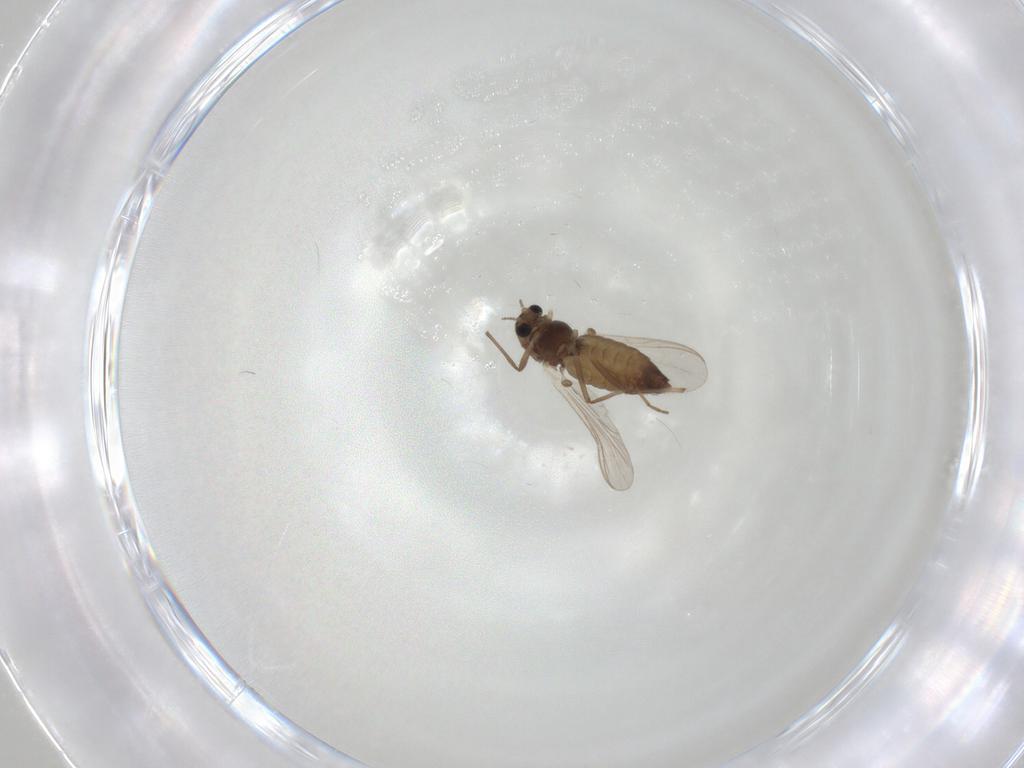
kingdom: Animalia
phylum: Arthropoda
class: Insecta
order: Diptera
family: Chironomidae
